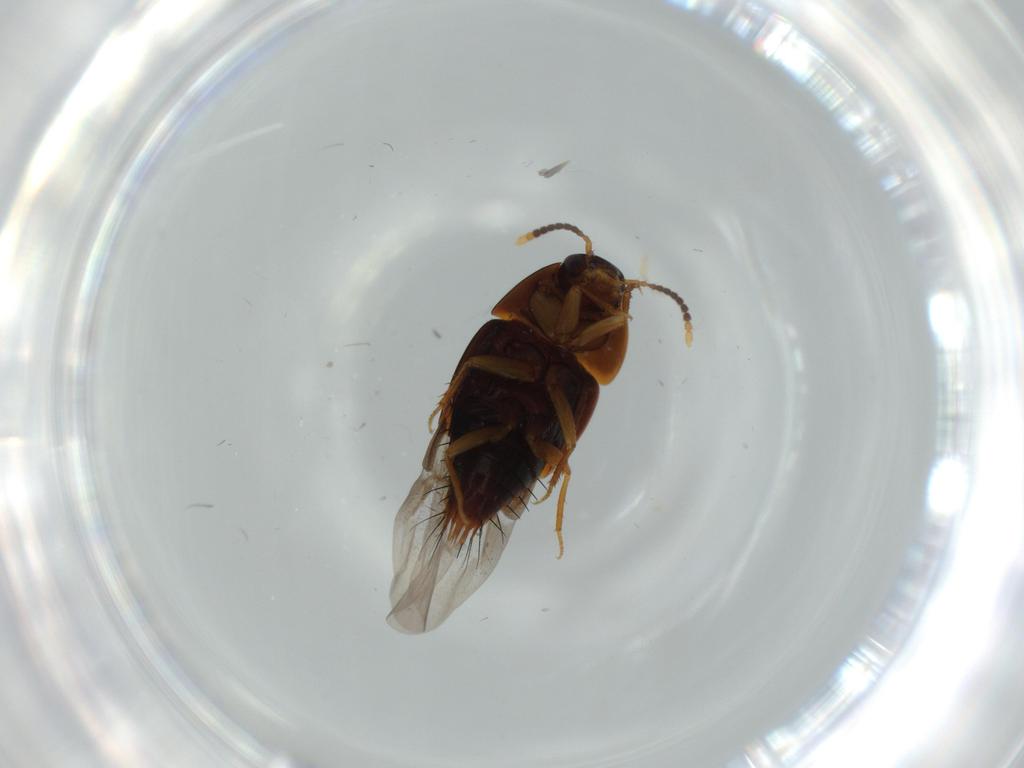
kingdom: Animalia
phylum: Arthropoda
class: Insecta
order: Coleoptera
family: Staphylinidae
